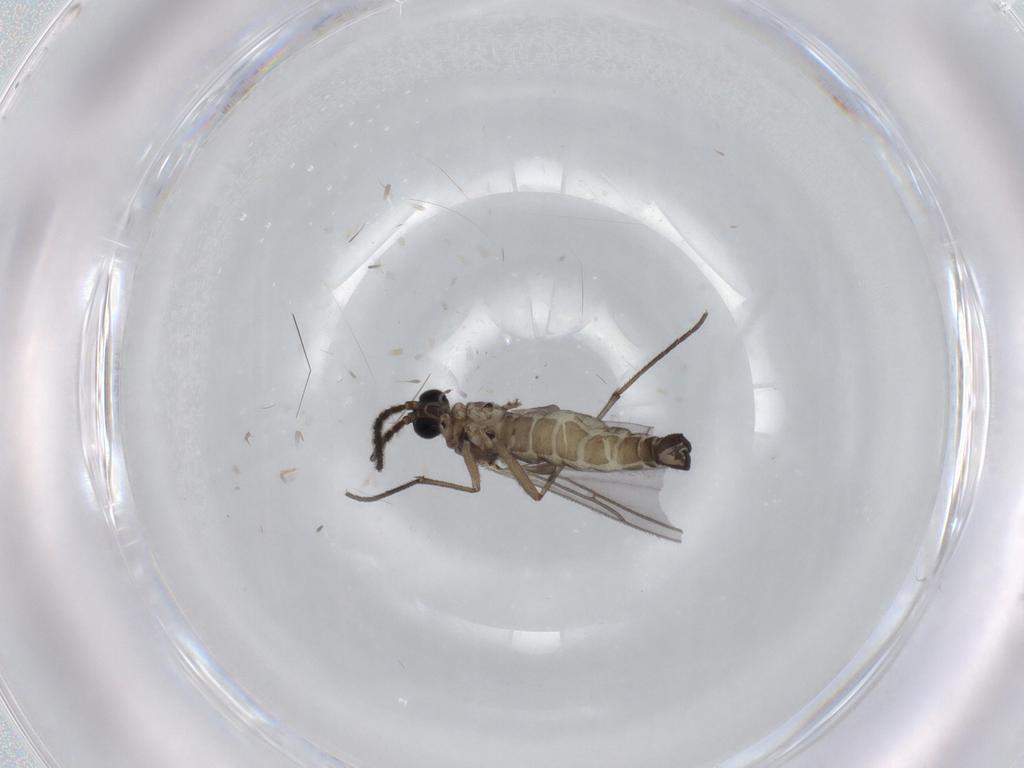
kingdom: Animalia
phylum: Arthropoda
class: Insecta
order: Diptera
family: Sciaridae
